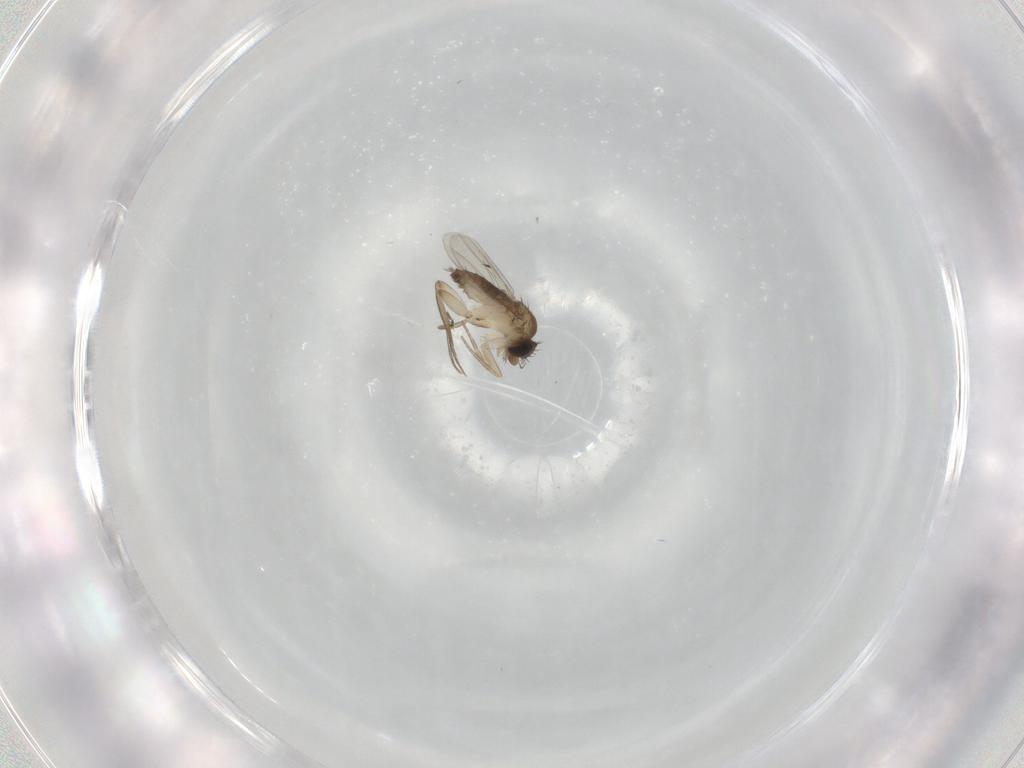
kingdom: Animalia
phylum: Arthropoda
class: Insecta
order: Diptera
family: Phoridae
